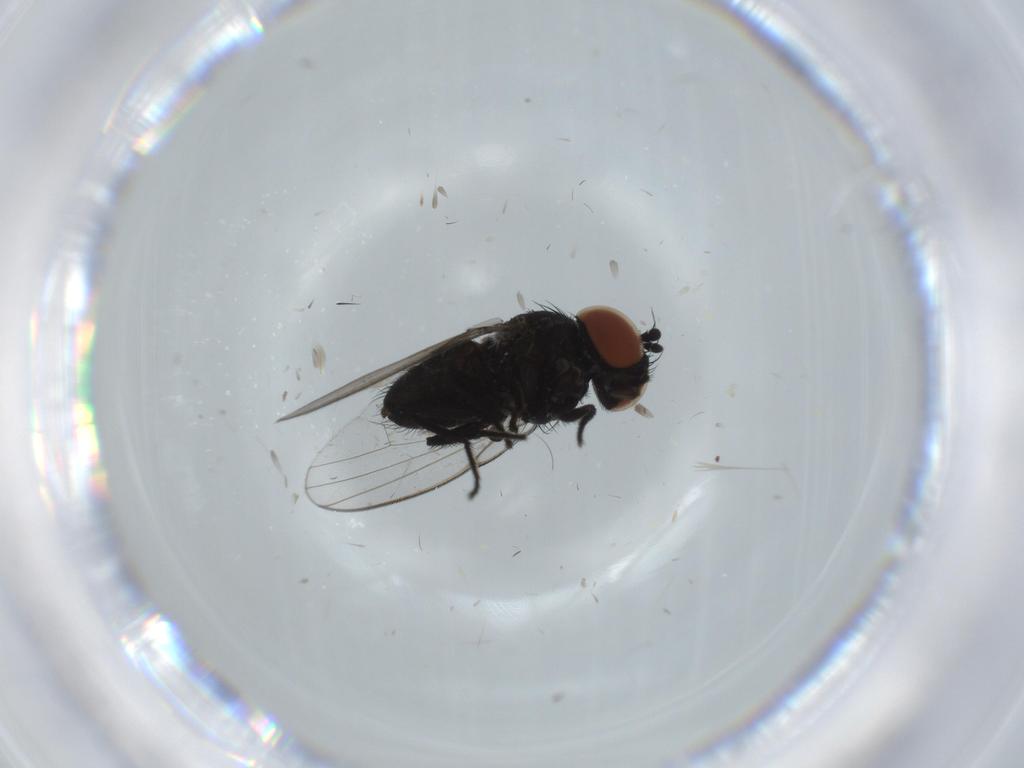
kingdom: Animalia
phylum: Arthropoda
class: Insecta
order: Diptera
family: Milichiidae
